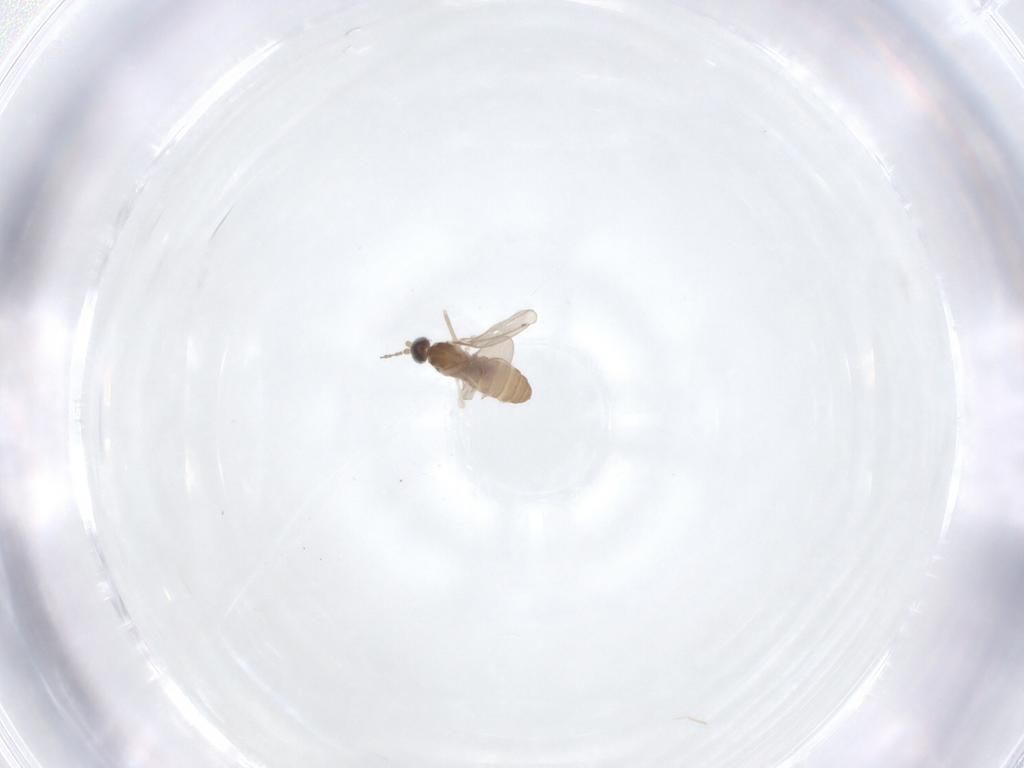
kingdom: Animalia
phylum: Arthropoda
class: Insecta
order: Diptera
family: Cecidomyiidae
